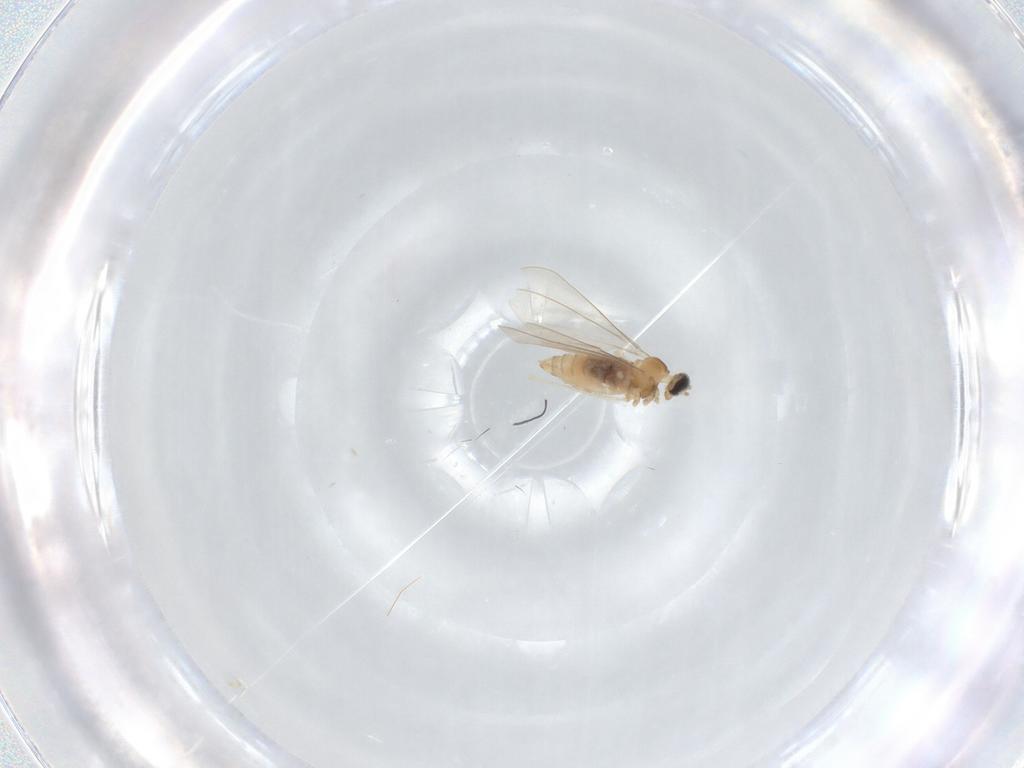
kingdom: Animalia
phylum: Arthropoda
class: Insecta
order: Diptera
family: Cecidomyiidae
